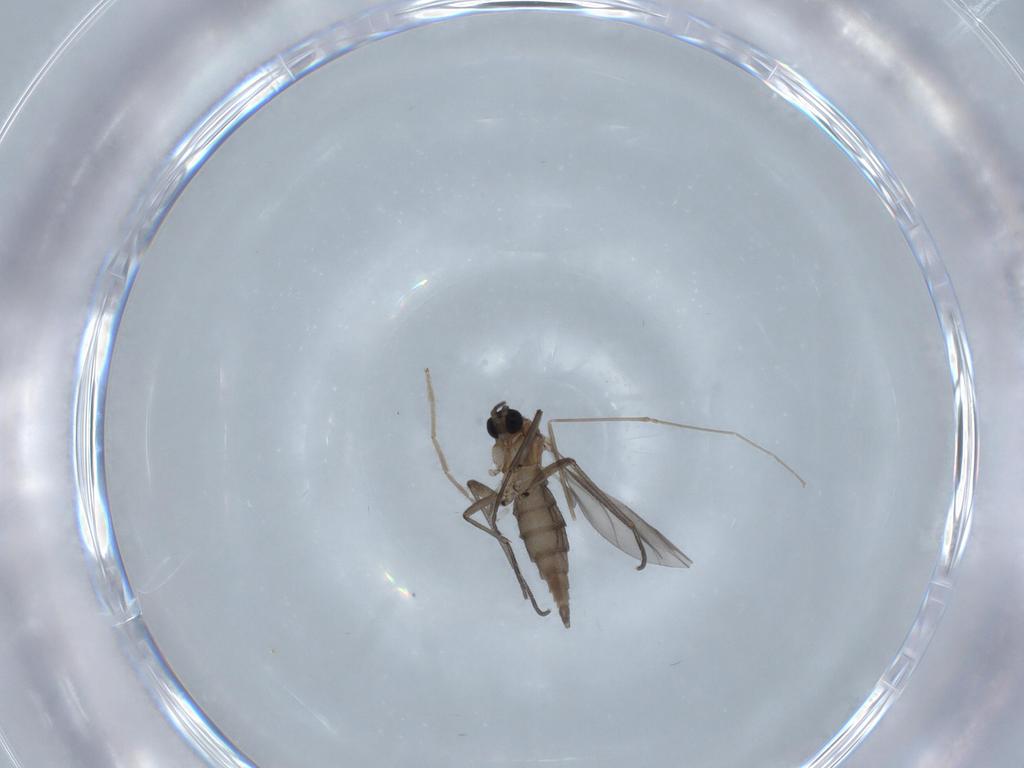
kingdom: Animalia
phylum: Arthropoda
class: Insecta
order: Diptera
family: Sciaridae
